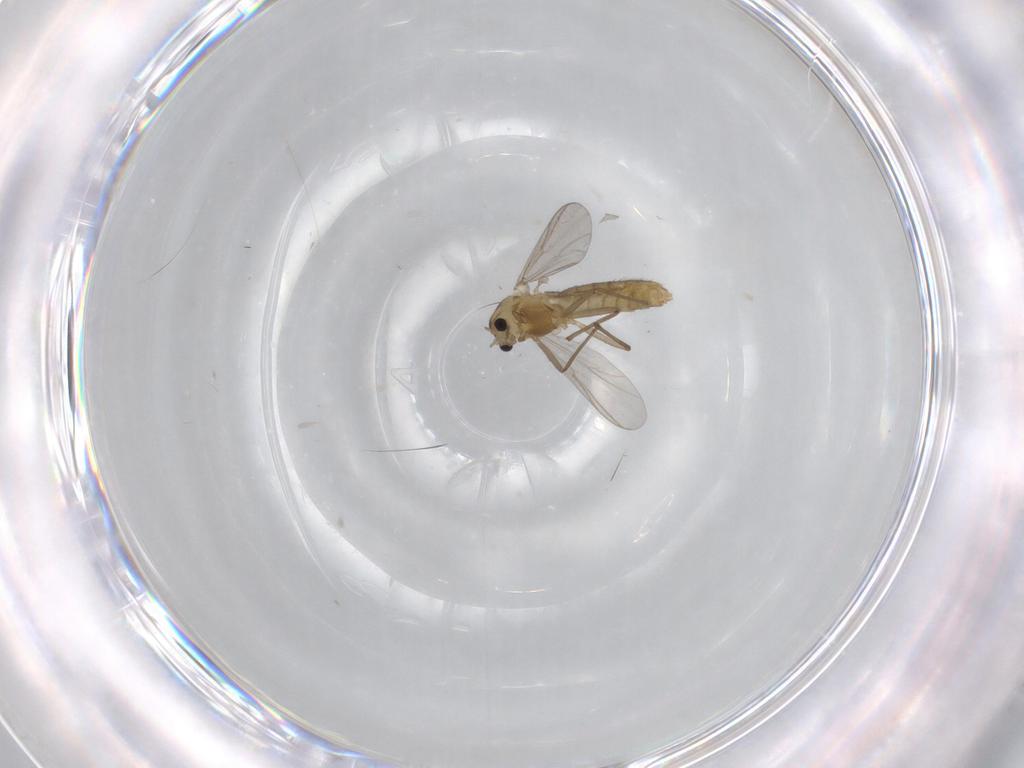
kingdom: Animalia
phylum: Arthropoda
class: Insecta
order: Diptera
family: Chironomidae
